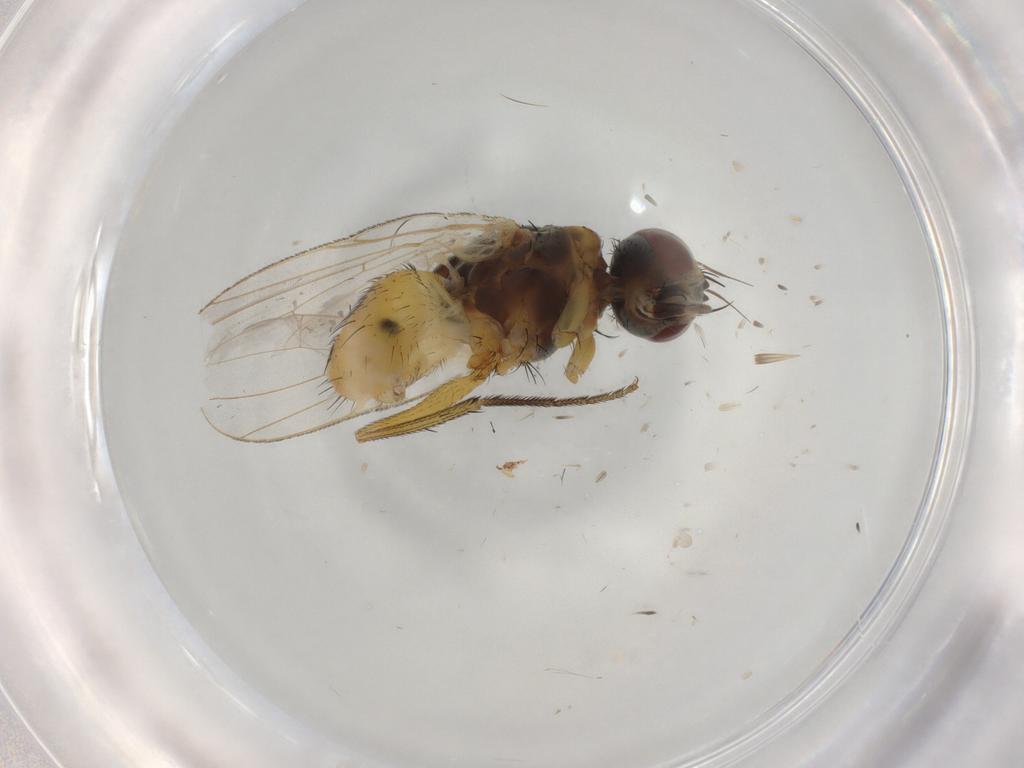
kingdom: Animalia
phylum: Arthropoda
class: Insecta
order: Diptera
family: Muscidae
